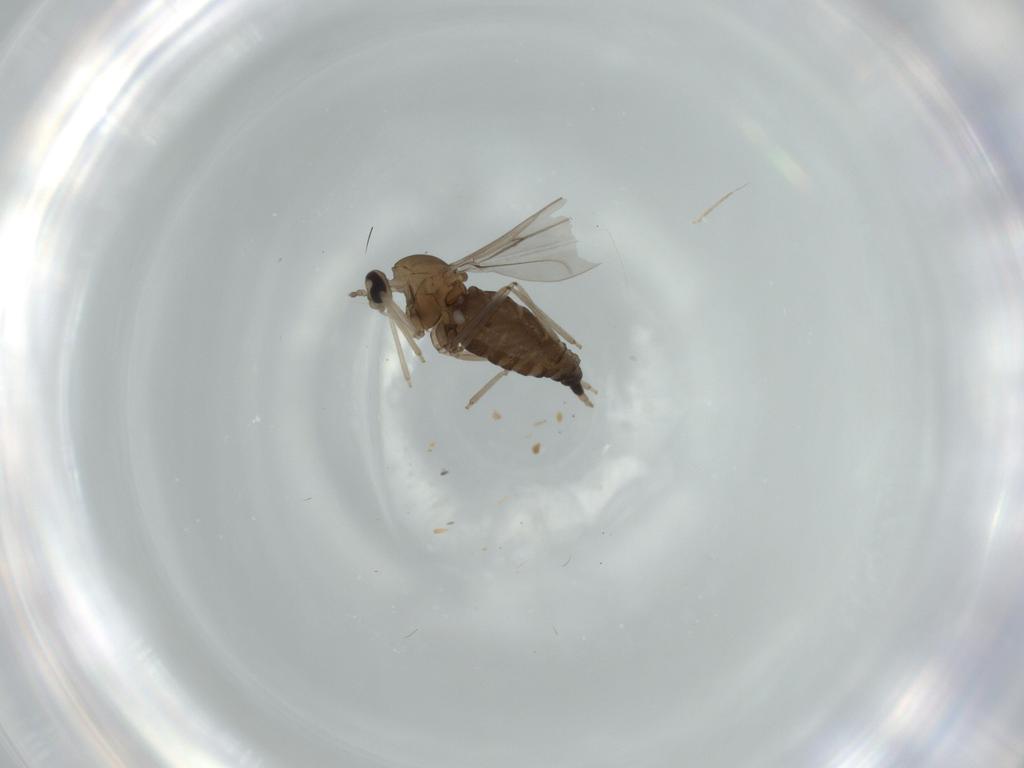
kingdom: Animalia
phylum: Arthropoda
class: Insecta
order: Diptera
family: Cecidomyiidae
